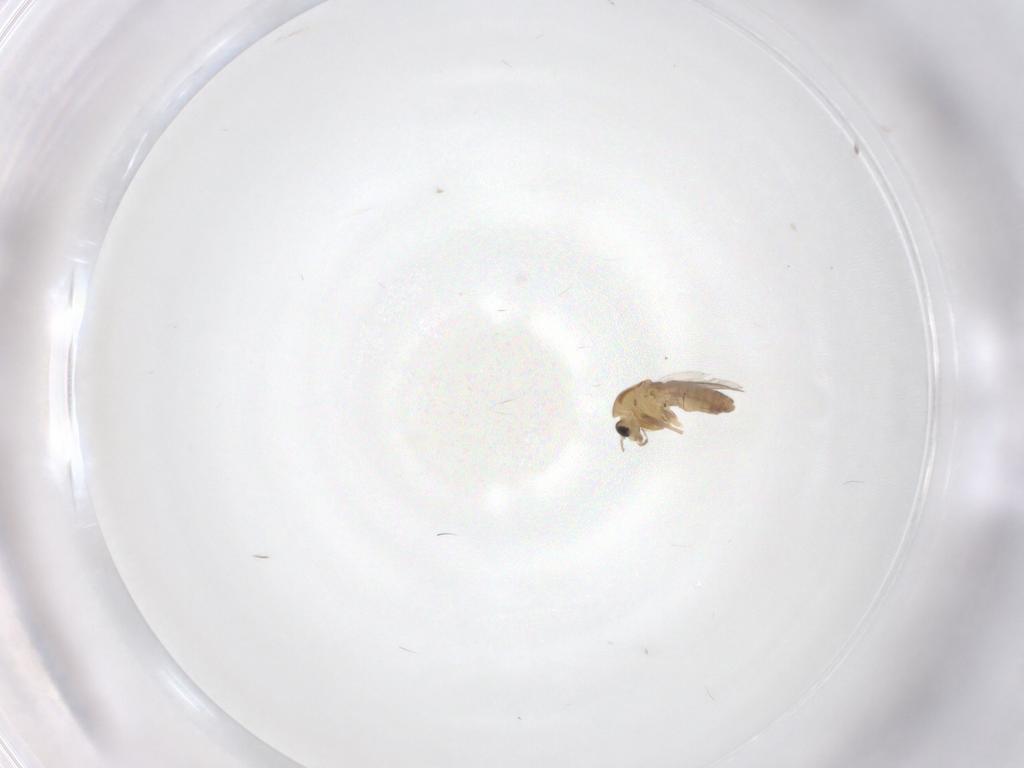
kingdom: Animalia
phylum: Arthropoda
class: Insecta
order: Diptera
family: Chironomidae
